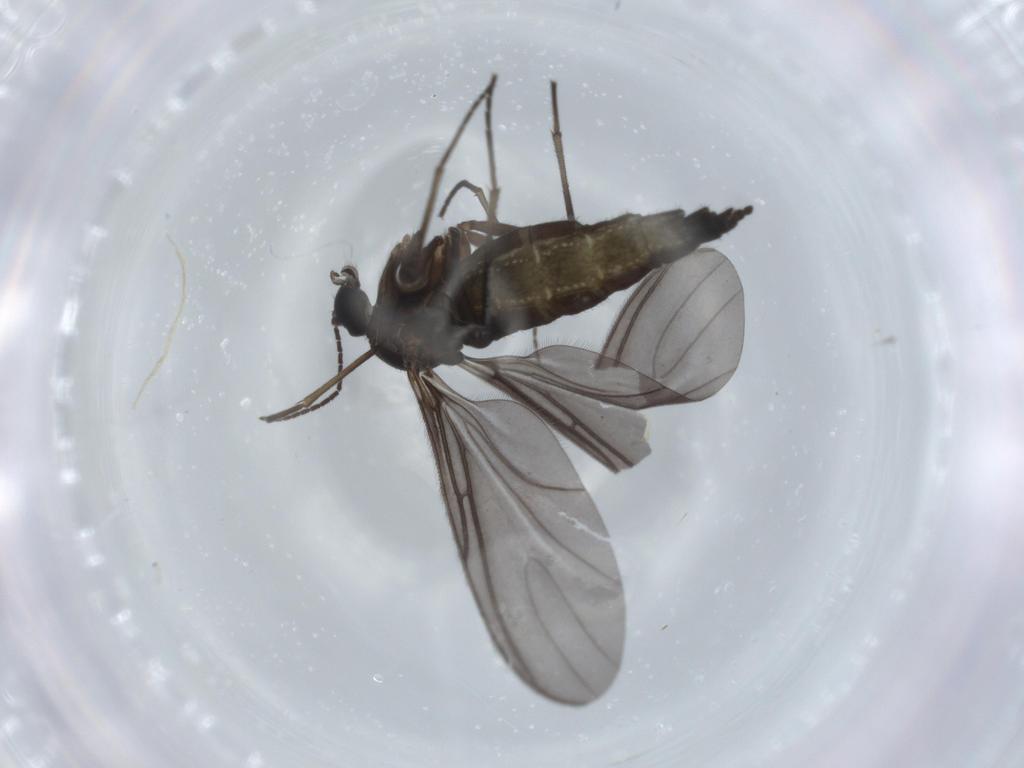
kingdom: Animalia
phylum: Arthropoda
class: Insecta
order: Diptera
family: Sciaridae
